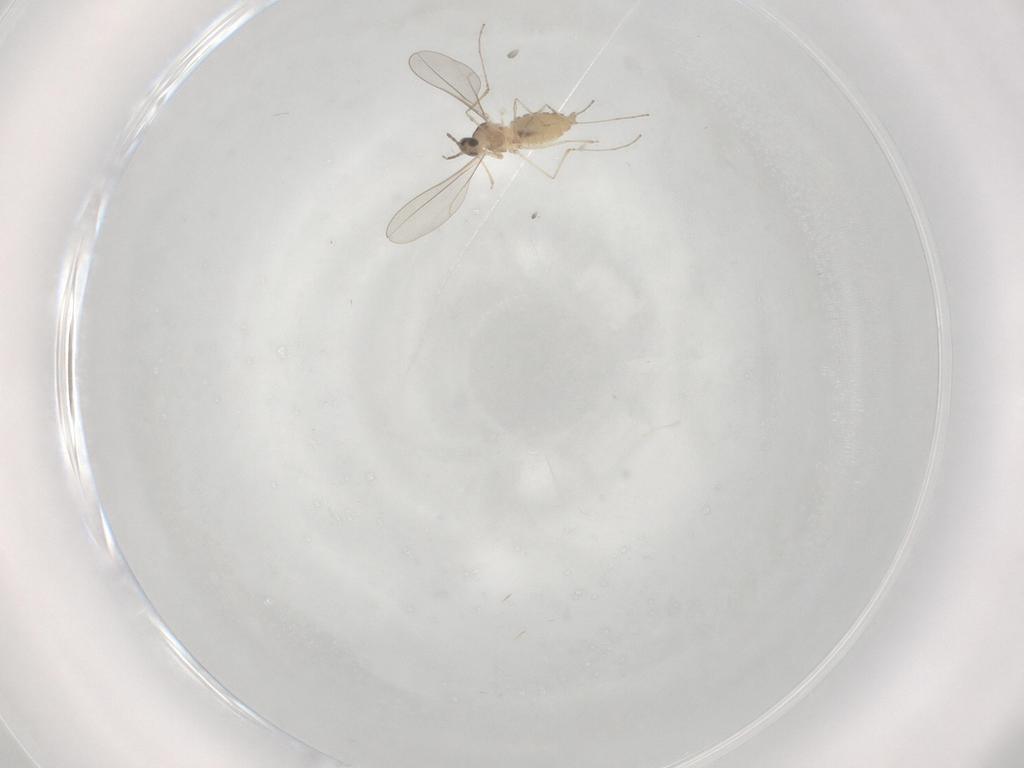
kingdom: Animalia
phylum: Arthropoda
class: Insecta
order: Diptera
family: Cecidomyiidae
